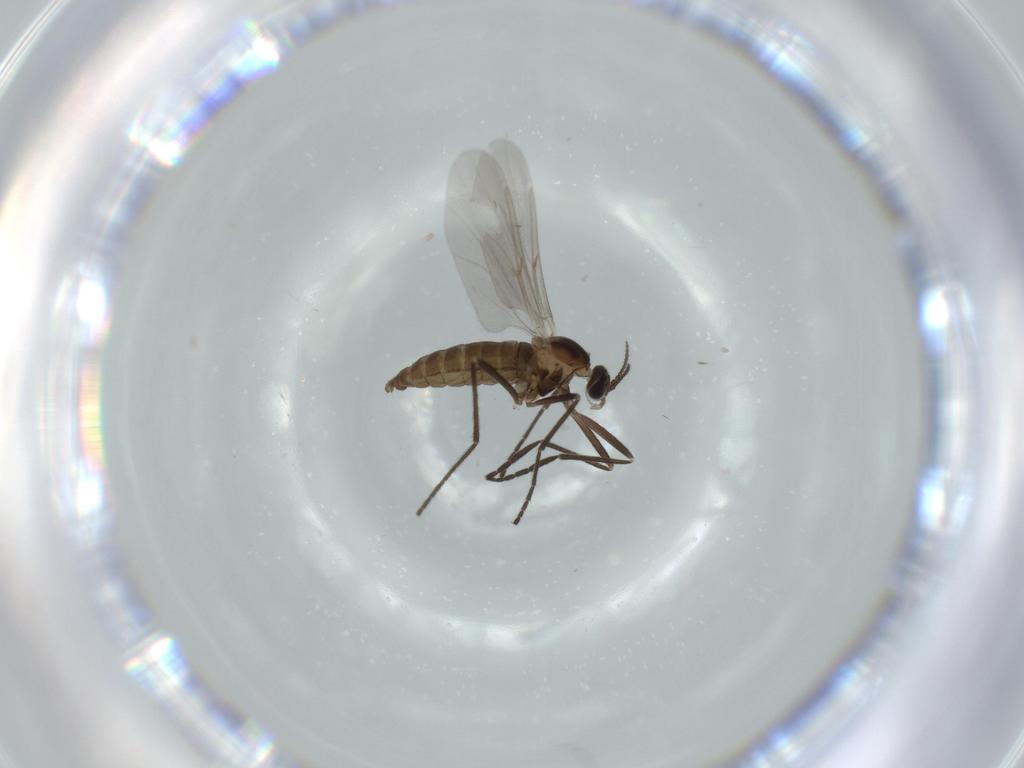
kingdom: Animalia
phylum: Arthropoda
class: Insecta
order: Diptera
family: Cecidomyiidae
